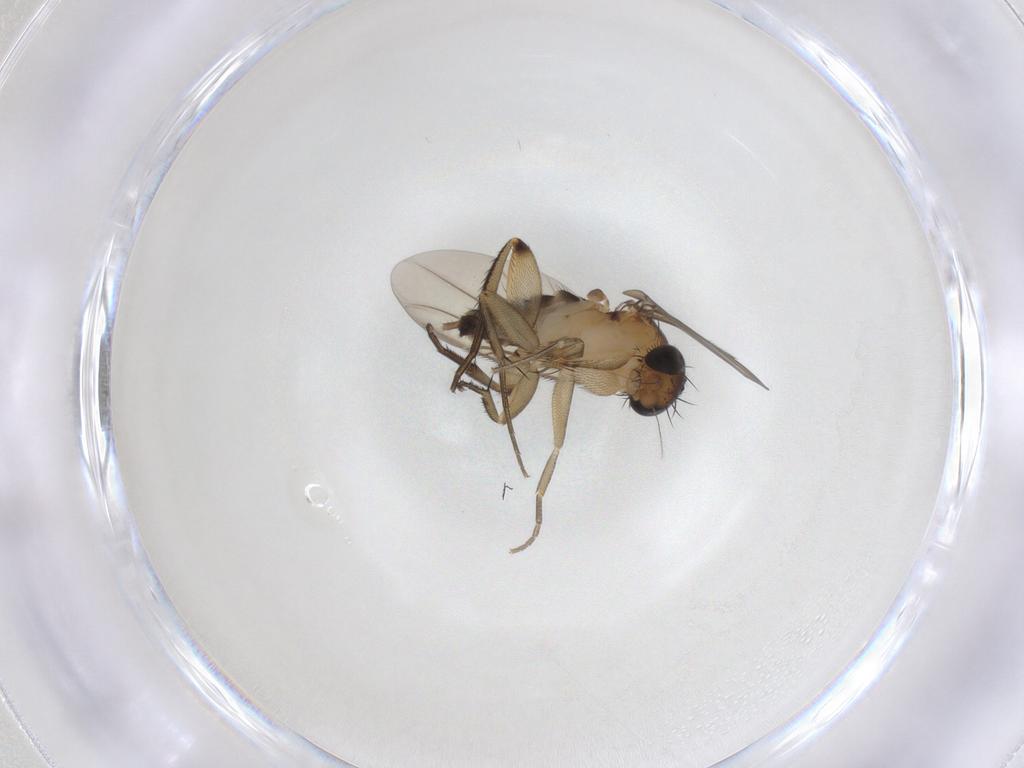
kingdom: Animalia
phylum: Arthropoda
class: Insecta
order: Diptera
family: Phoridae
